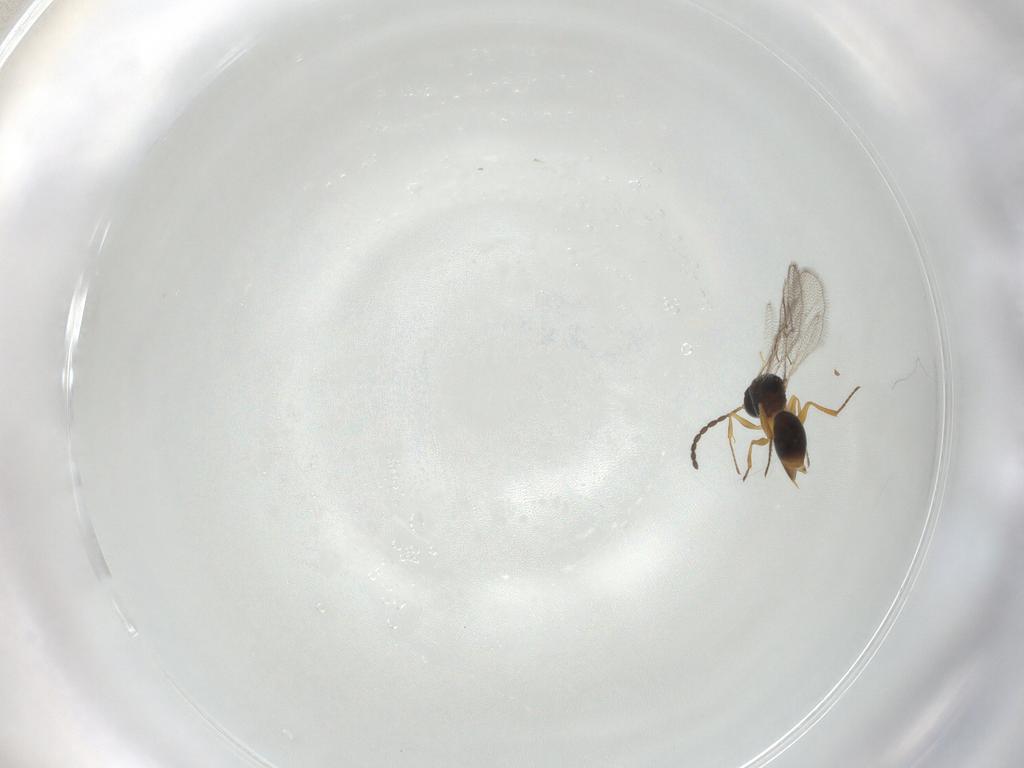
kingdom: Animalia
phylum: Arthropoda
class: Insecta
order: Hymenoptera
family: Figitidae
